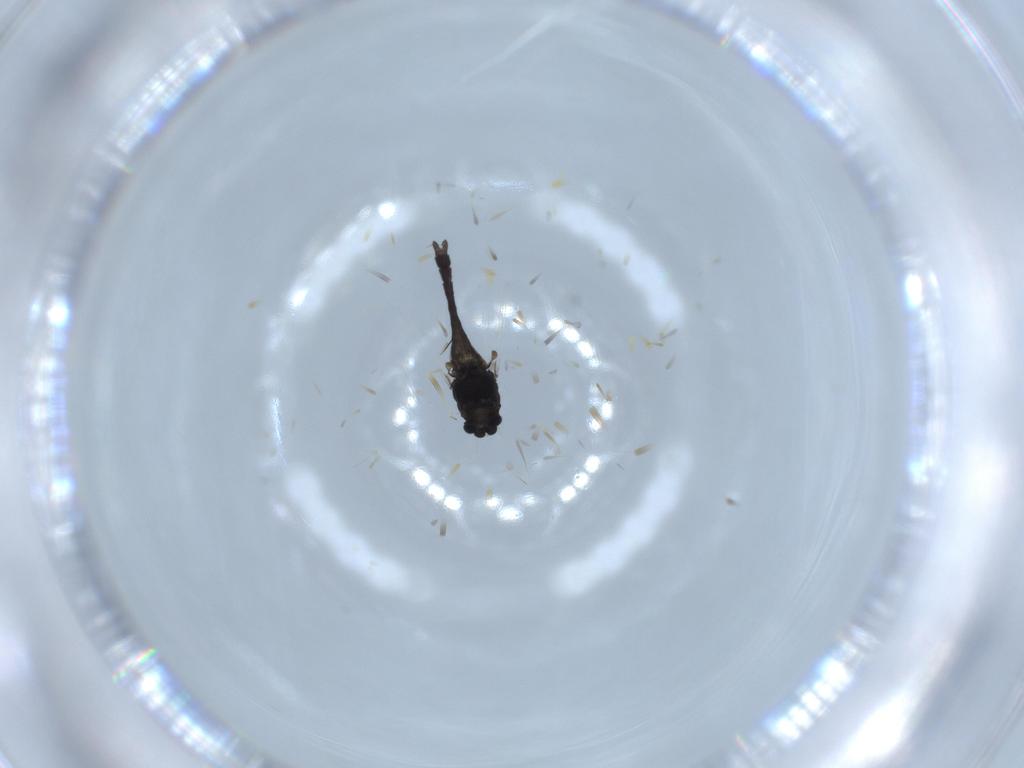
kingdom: Animalia
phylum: Arthropoda
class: Insecta
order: Diptera
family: Chironomidae
